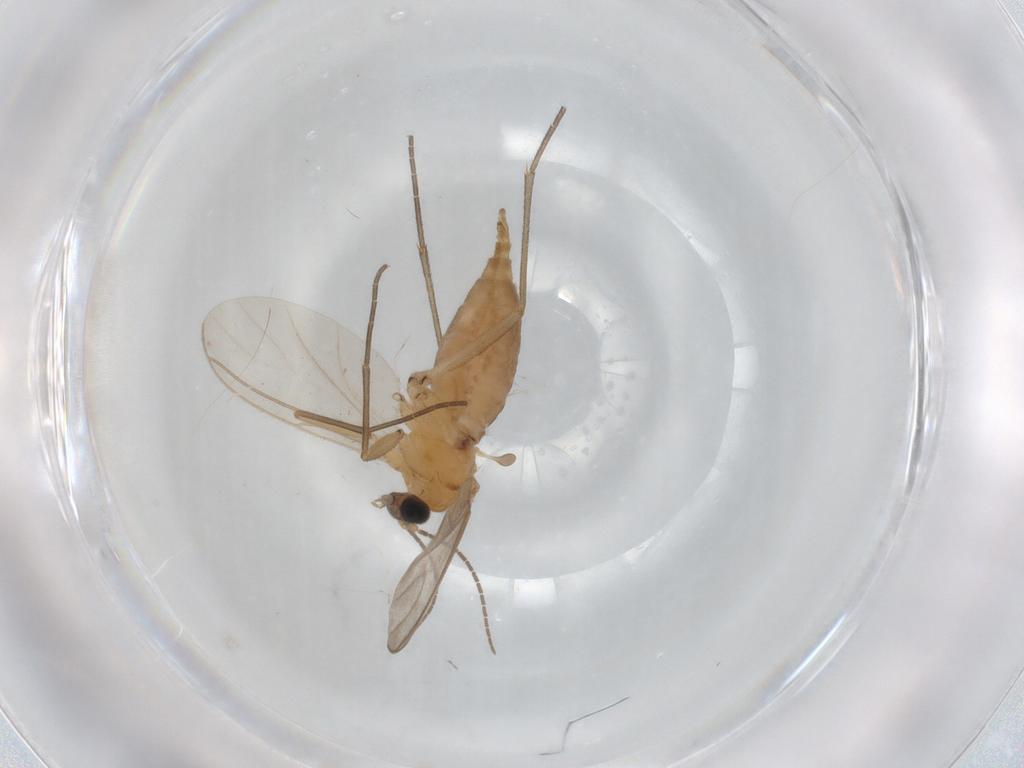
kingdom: Animalia
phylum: Arthropoda
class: Insecta
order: Diptera
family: Sciaridae
